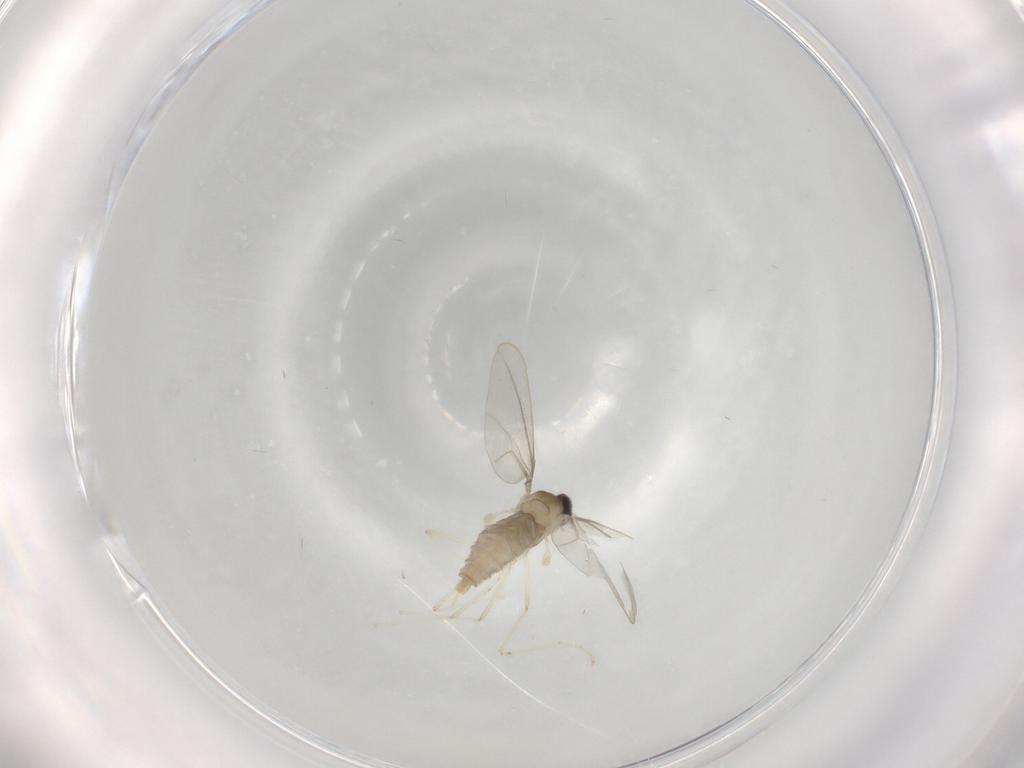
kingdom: Animalia
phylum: Arthropoda
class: Insecta
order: Diptera
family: Cecidomyiidae
